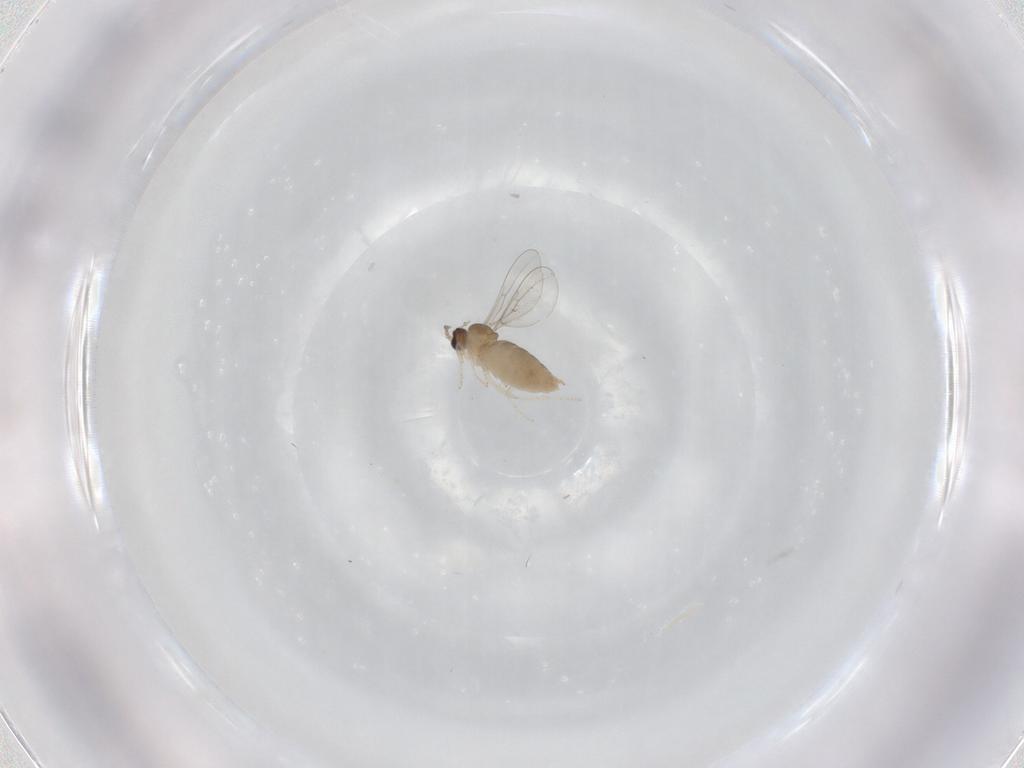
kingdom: Animalia
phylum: Arthropoda
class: Insecta
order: Diptera
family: Cecidomyiidae
